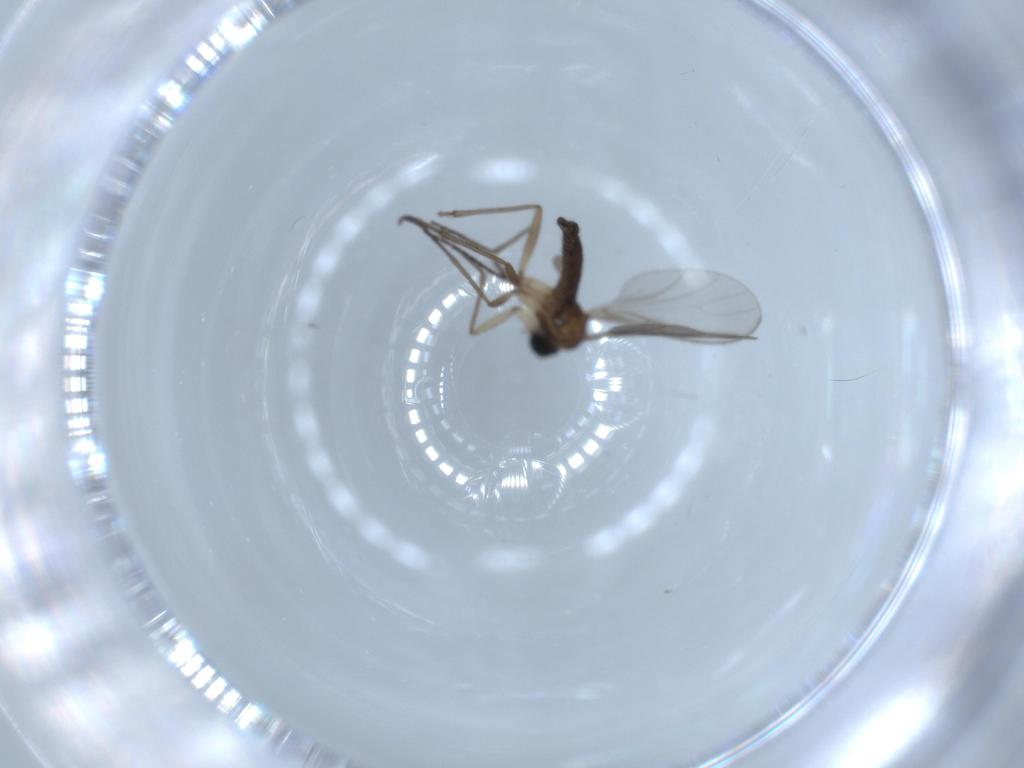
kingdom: Animalia
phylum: Arthropoda
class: Insecta
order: Diptera
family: Sciaridae
